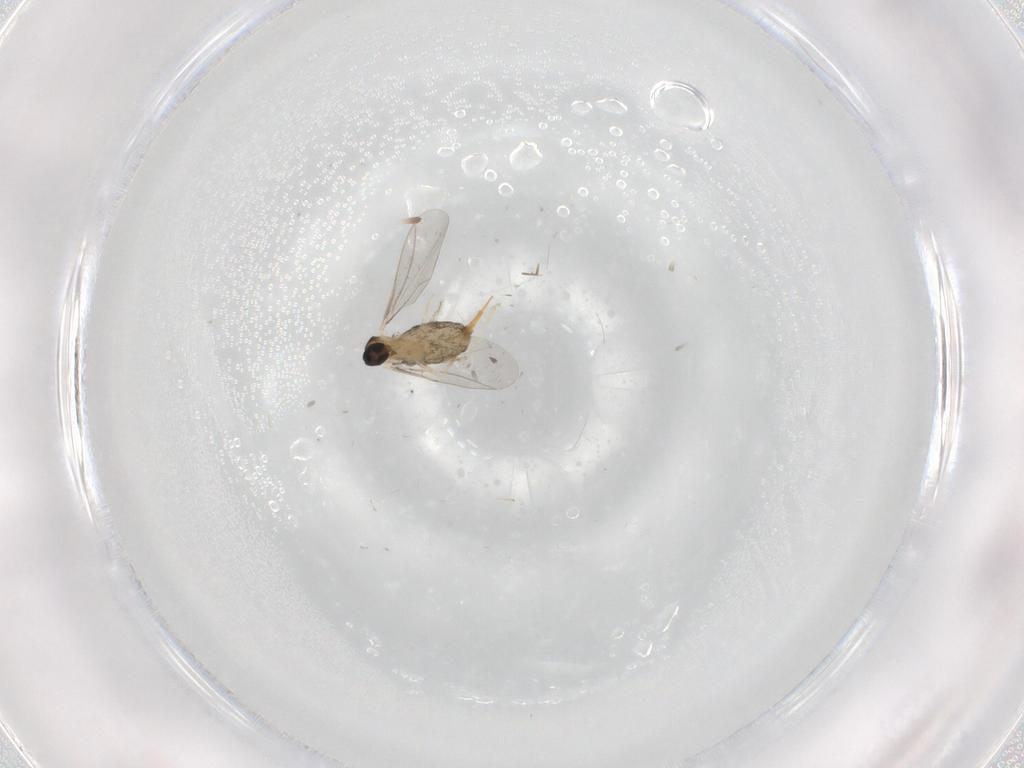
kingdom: Animalia
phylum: Arthropoda
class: Insecta
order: Diptera
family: Cecidomyiidae
